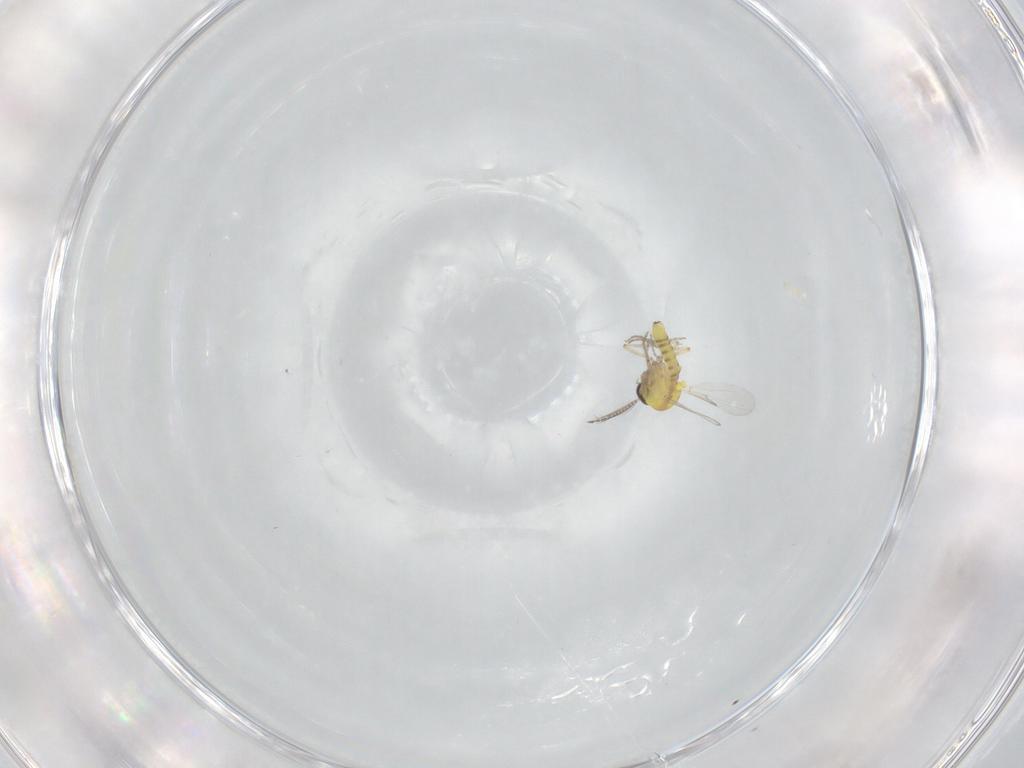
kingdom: Animalia
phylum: Arthropoda
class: Insecta
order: Diptera
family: Ceratopogonidae
